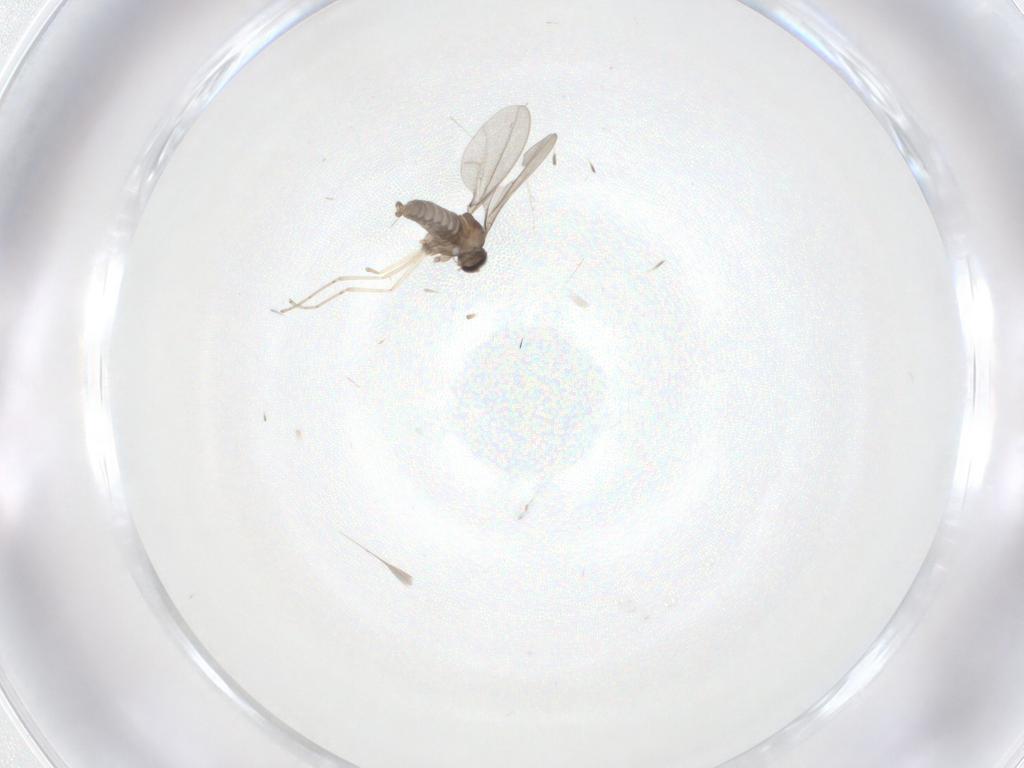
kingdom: Animalia
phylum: Arthropoda
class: Insecta
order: Diptera
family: Cecidomyiidae
